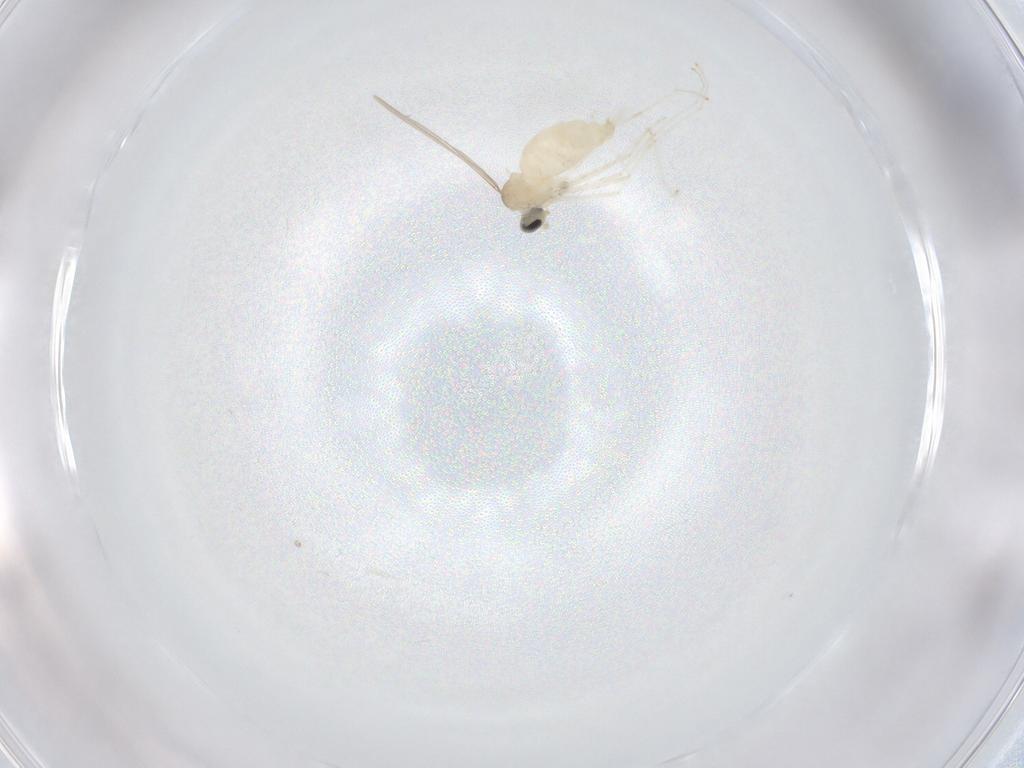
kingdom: Animalia
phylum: Arthropoda
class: Insecta
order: Diptera
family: Cecidomyiidae
